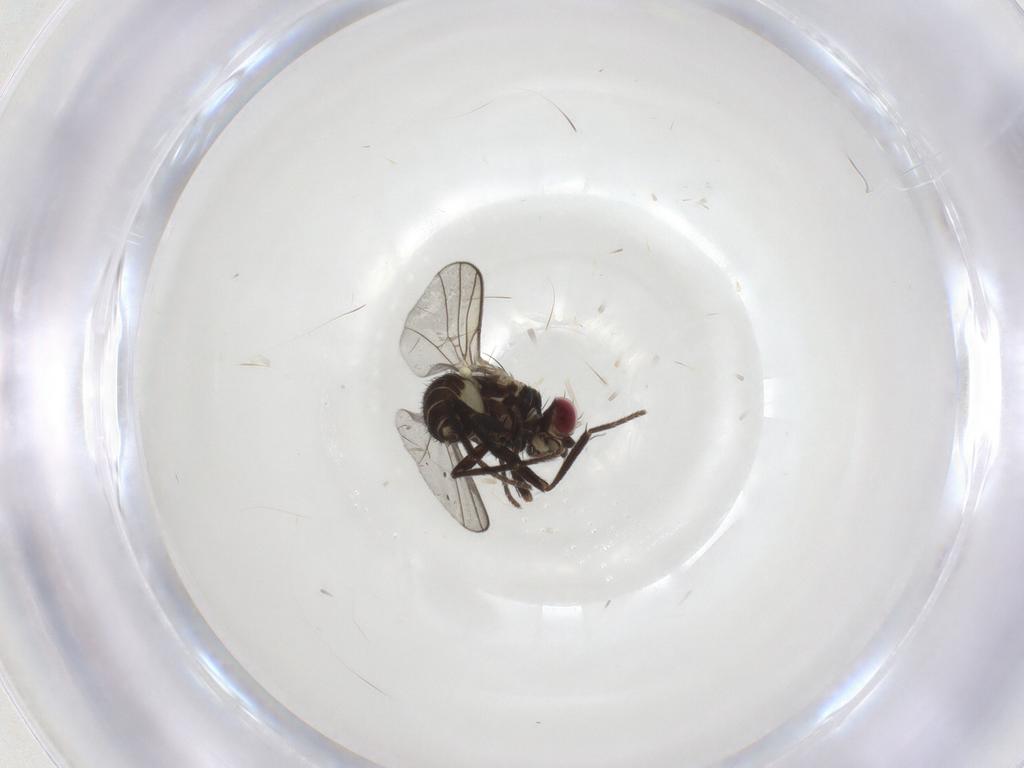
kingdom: Animalia
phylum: Arthropoda
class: Insecta
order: Diptera
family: Agromyzidae
